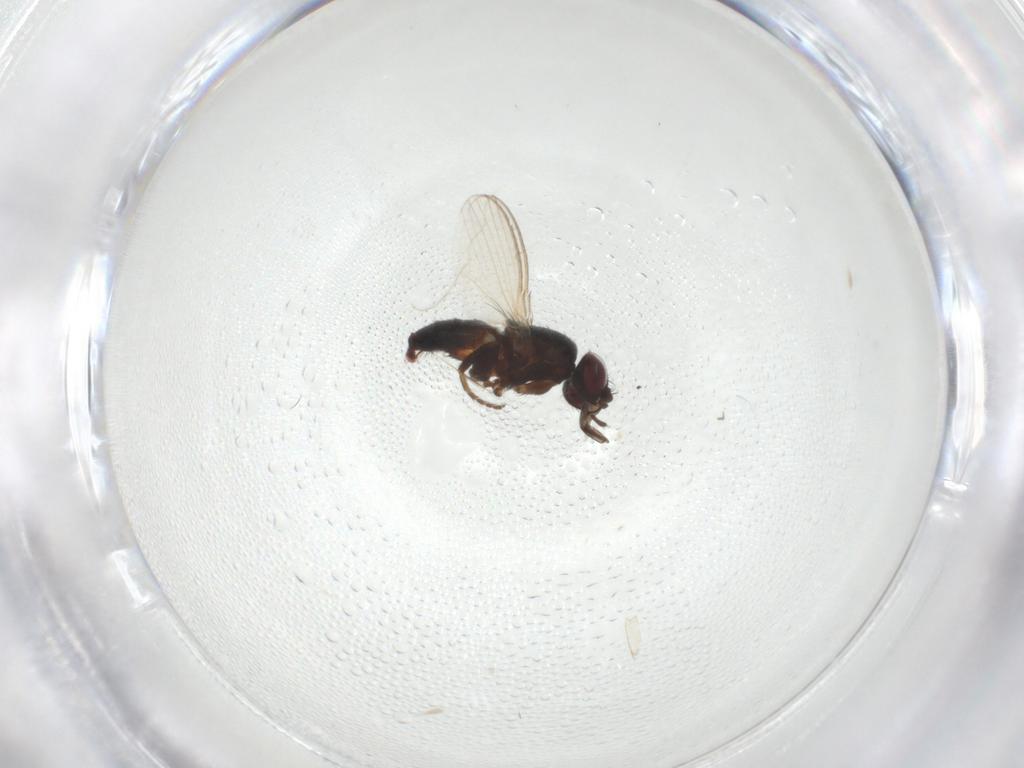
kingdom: Animalia
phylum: Arthropoda
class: Insecta
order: Diptera
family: Milichiidae
